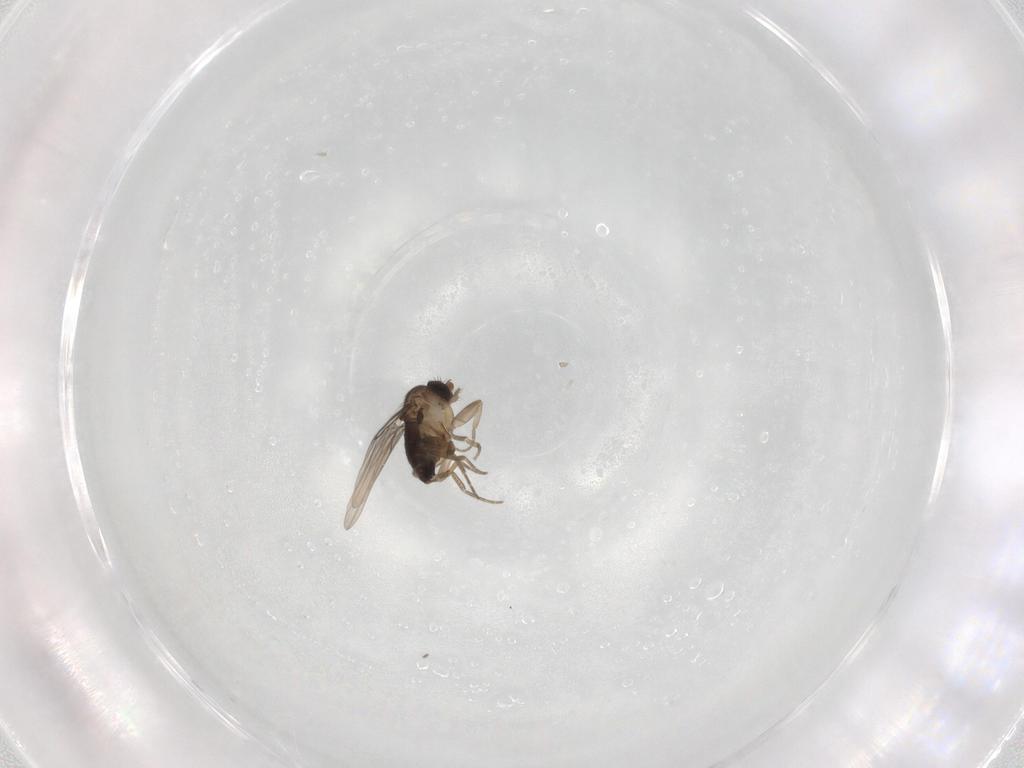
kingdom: Animalia
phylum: Arthropoda
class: Insecta
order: Diptera
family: Phoridae
